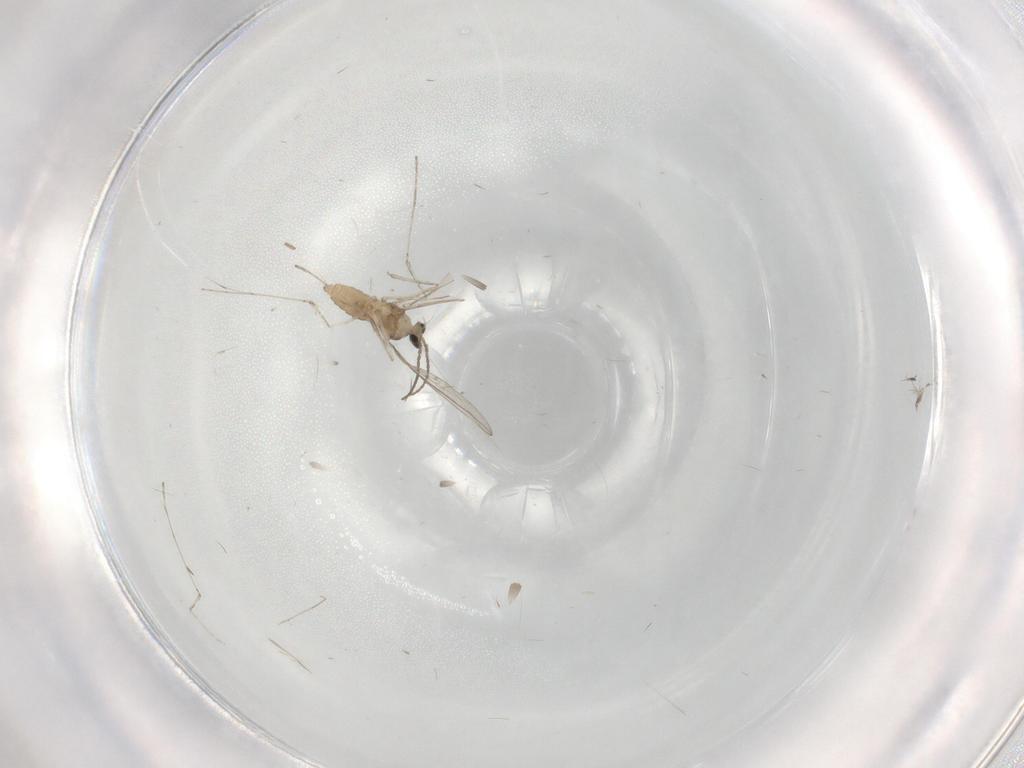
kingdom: Animalia
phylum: Arthropoda
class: Insecta
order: Diptera
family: Cecidomyiidae
